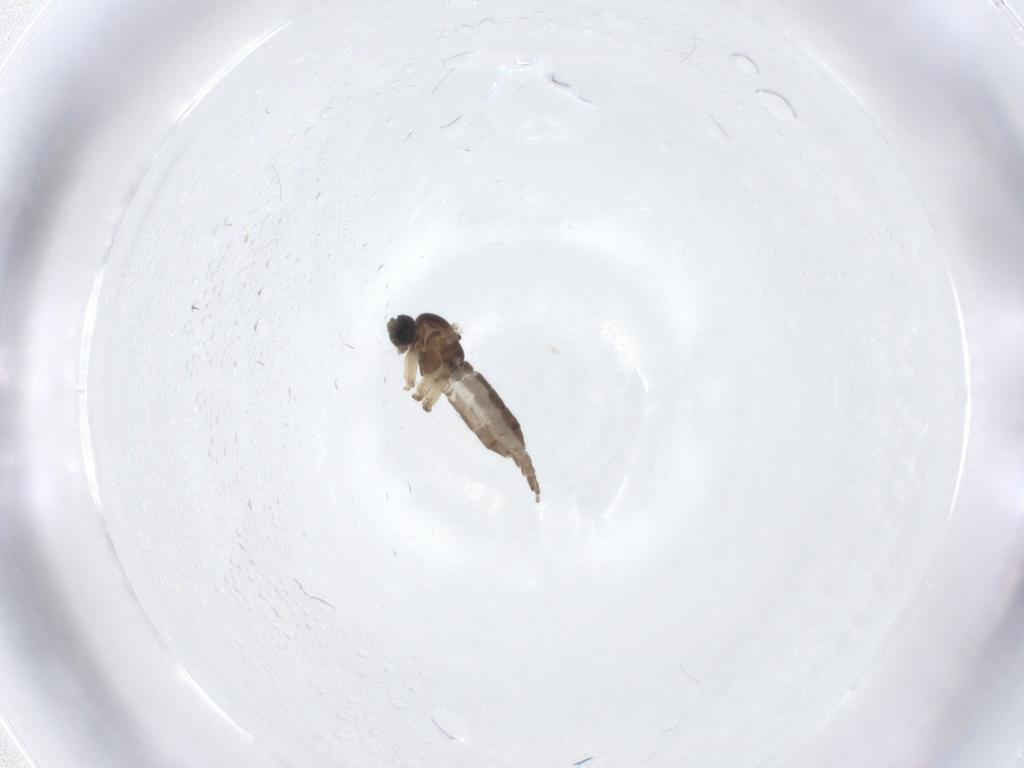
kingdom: Animalia
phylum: Arthropoda
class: Insecta
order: Diptera
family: Sciaridae
